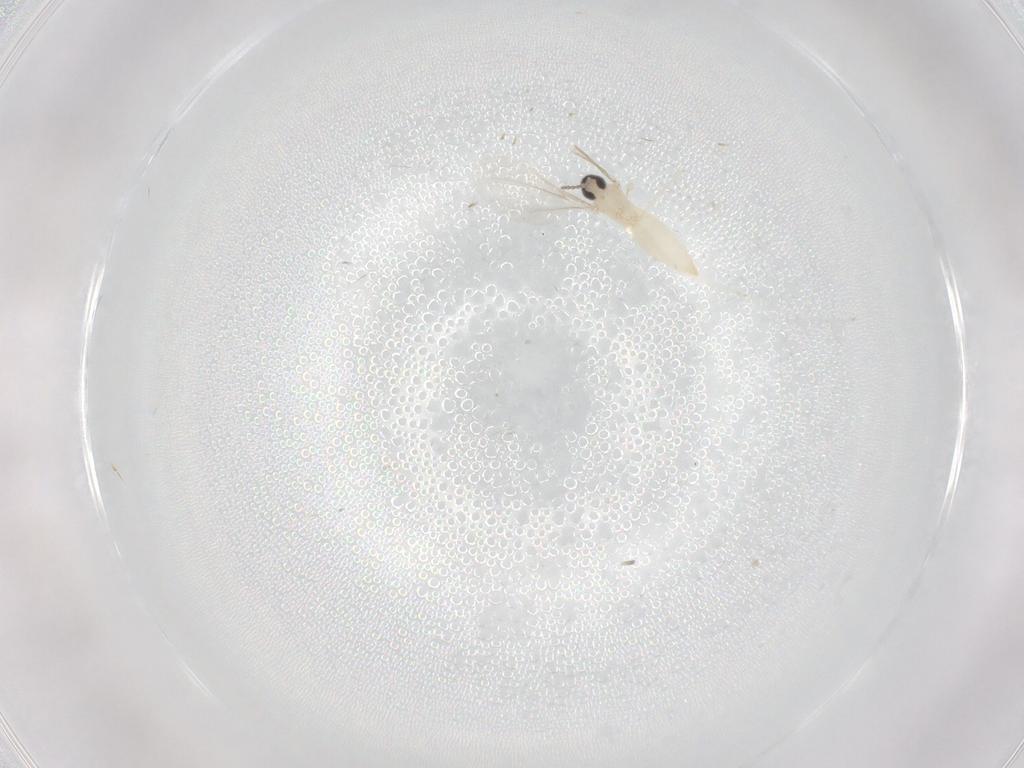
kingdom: Animalia
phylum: Arthropoda
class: Insecta
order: Diptera
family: Cecidomyiidae
